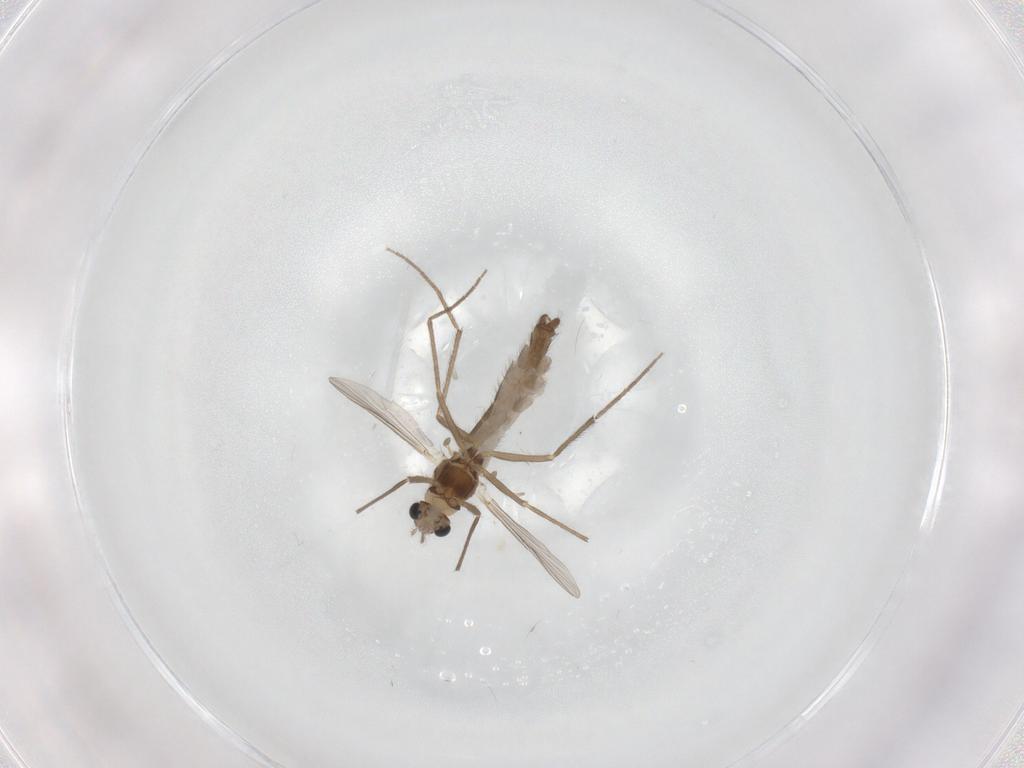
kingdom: Animalia
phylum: Arthropoda
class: Insecta
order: Diptera
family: Chironomidae
